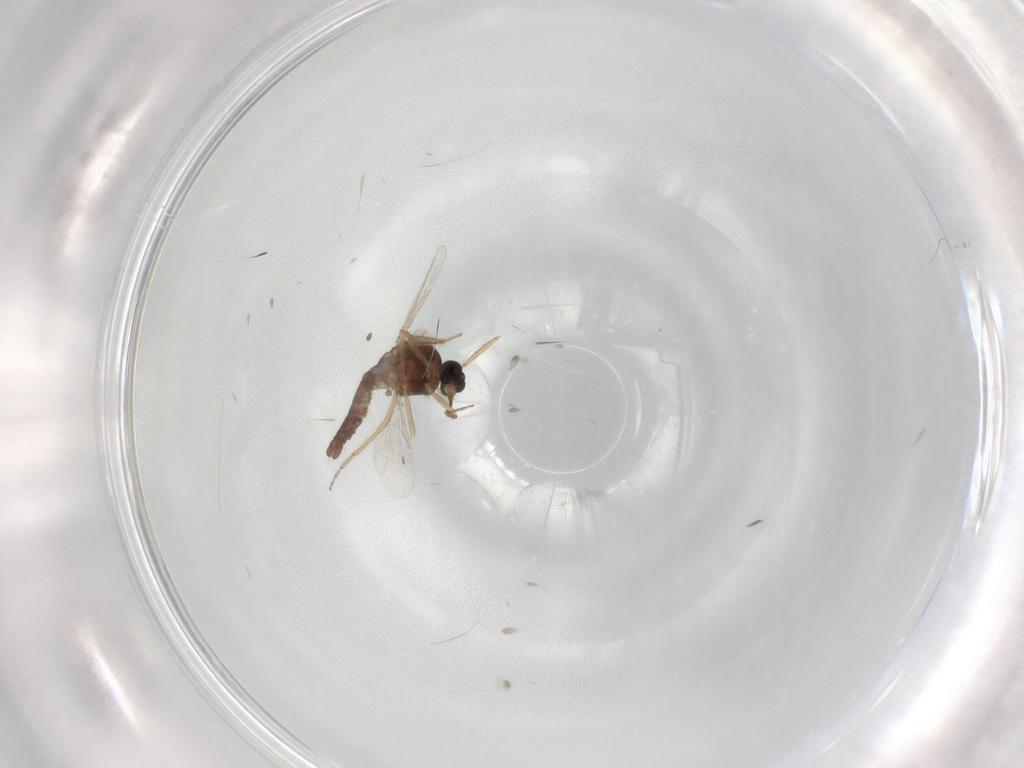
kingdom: Animalia
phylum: Arthropoda
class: Insecta
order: Diptera
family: Ceratopogonidae
